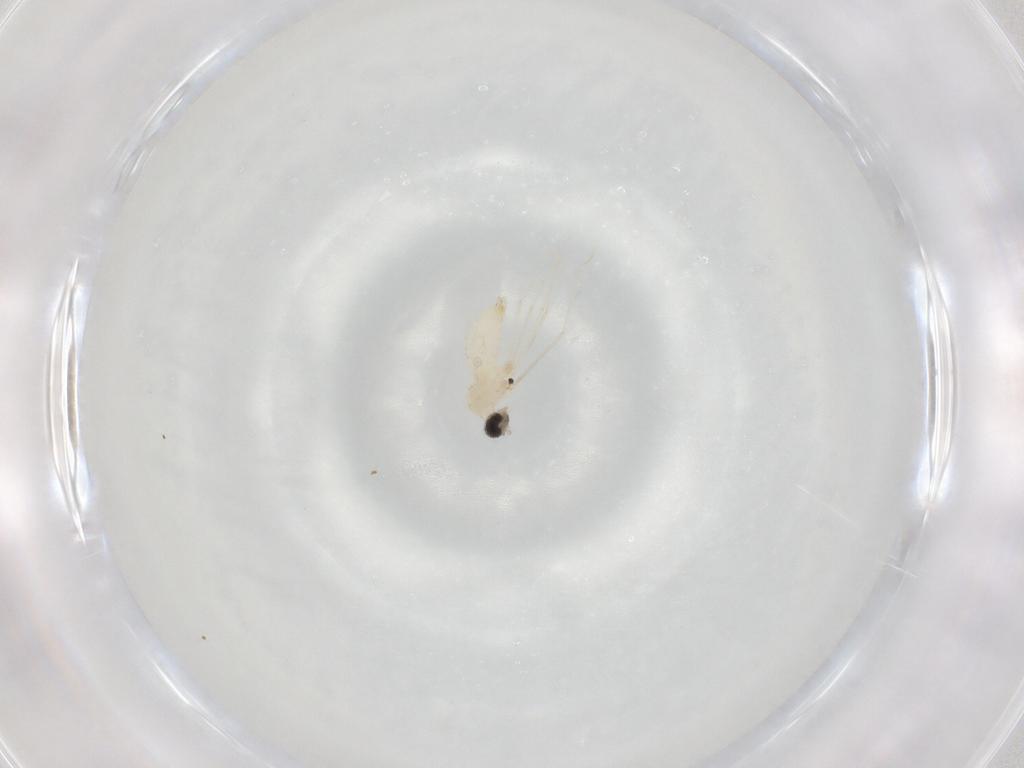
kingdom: Animalia
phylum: Arthropoda
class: Insecta
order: Diptera
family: Cecidomyiidae
